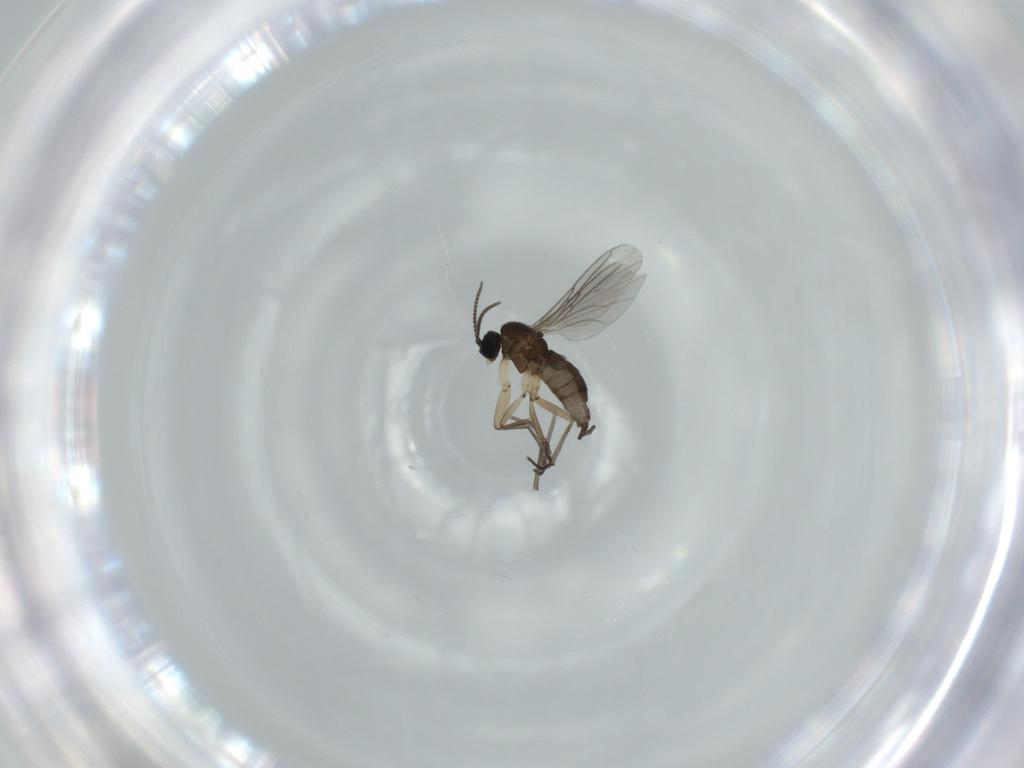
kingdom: Animalia
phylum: Arthropoda
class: Insecta
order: Diptera
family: Sciaridae
